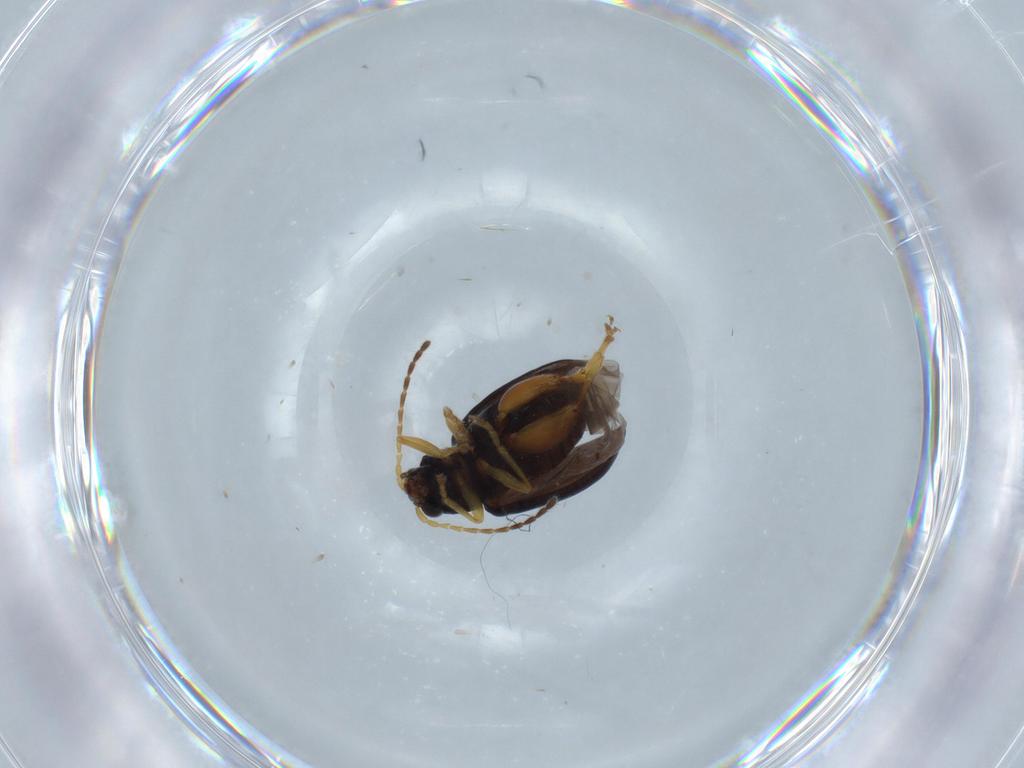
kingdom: Animalia
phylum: Arthropoda
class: Insecta
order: Coleoptera
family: Chrysomelidae
